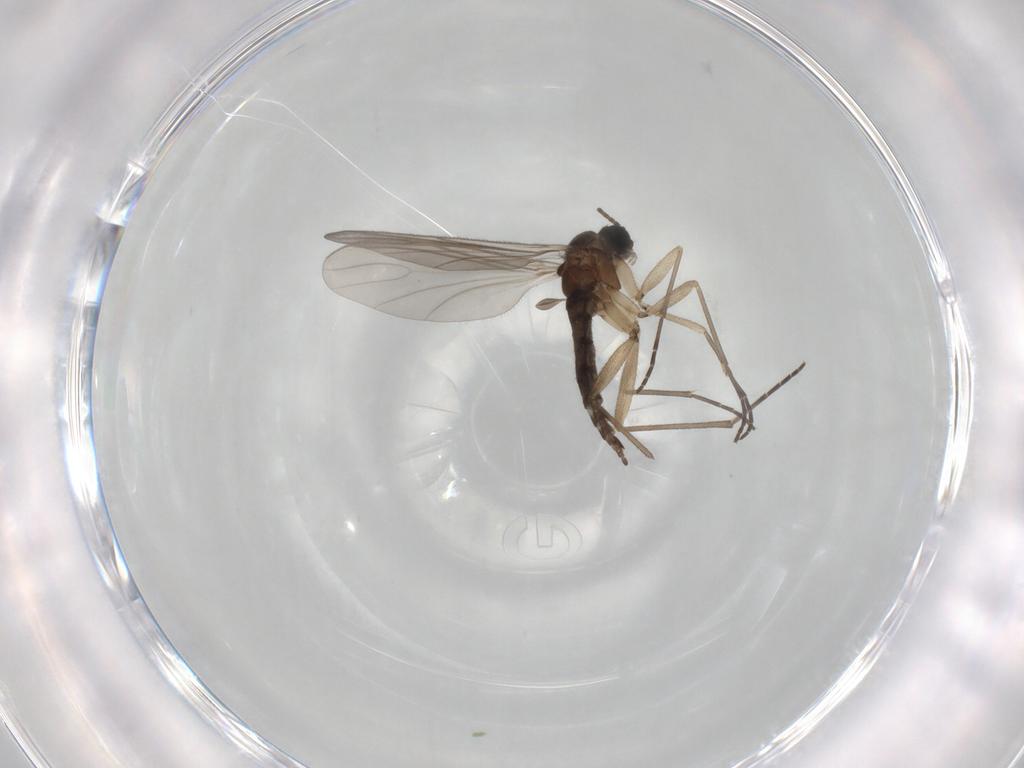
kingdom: Animalia
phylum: Arthropoda
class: Insecta
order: Diptera
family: Sciaridae
